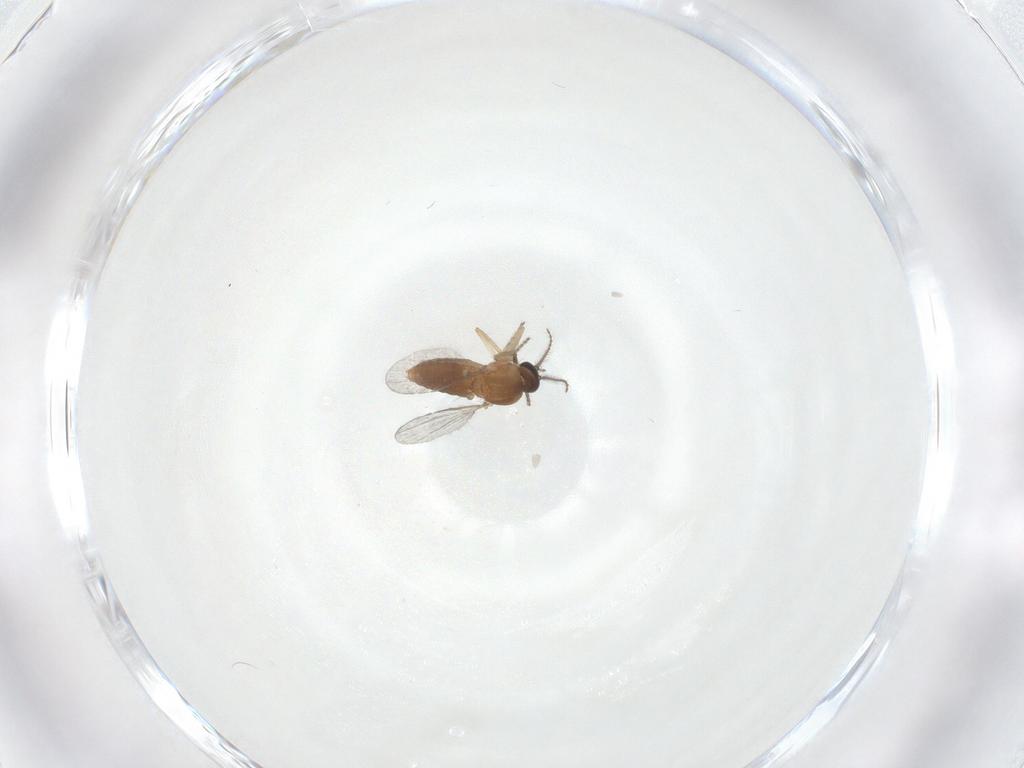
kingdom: Animalia
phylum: Arthropoda
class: Insecta
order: Diptera
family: Ceratopogonidae
